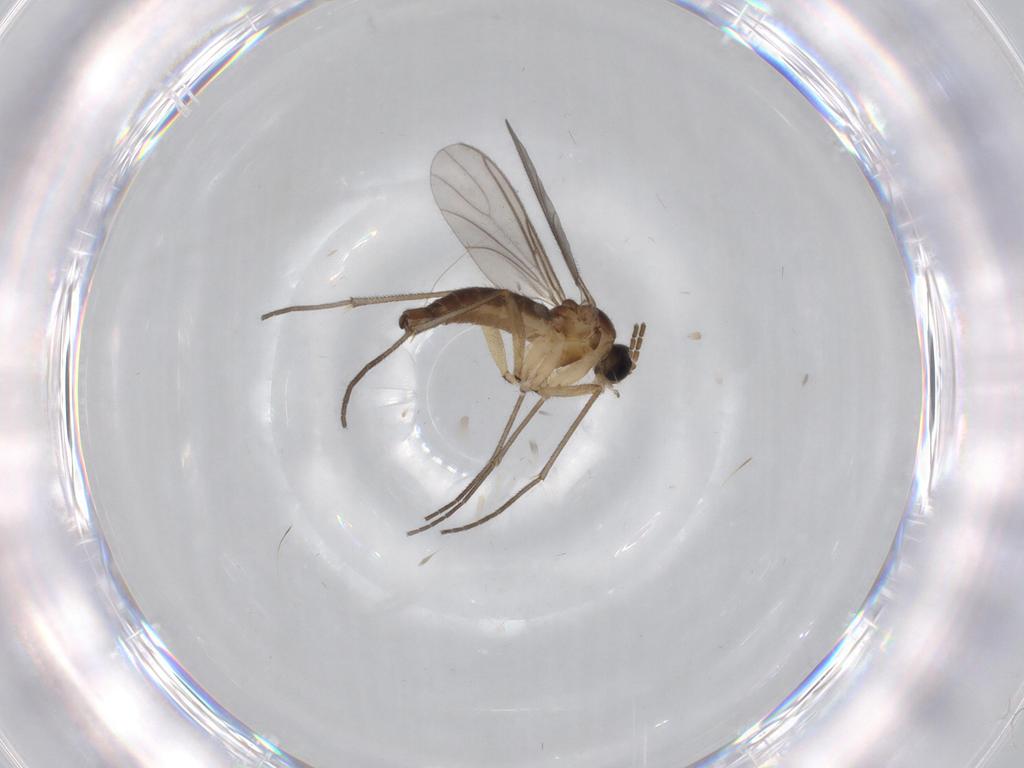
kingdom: Animalia
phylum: Arthropoda
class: Insecta
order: Diptera
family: Sciaridae
